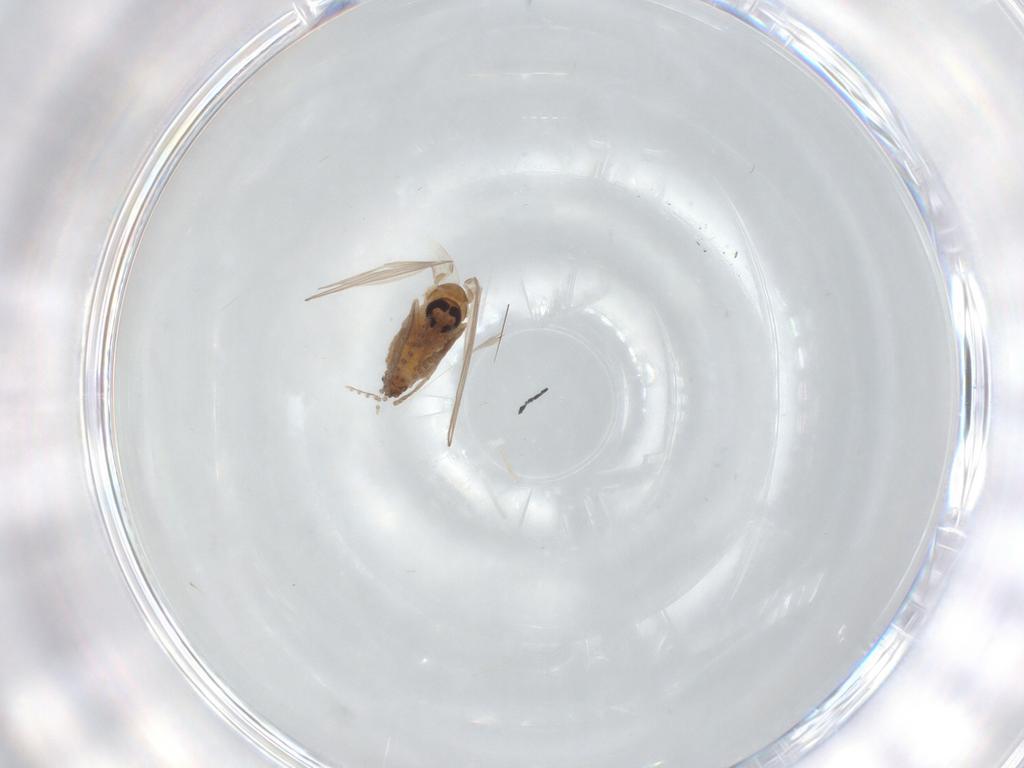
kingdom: Animalia
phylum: Arthropoda
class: Insecta
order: Diptera
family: Psychodidae
